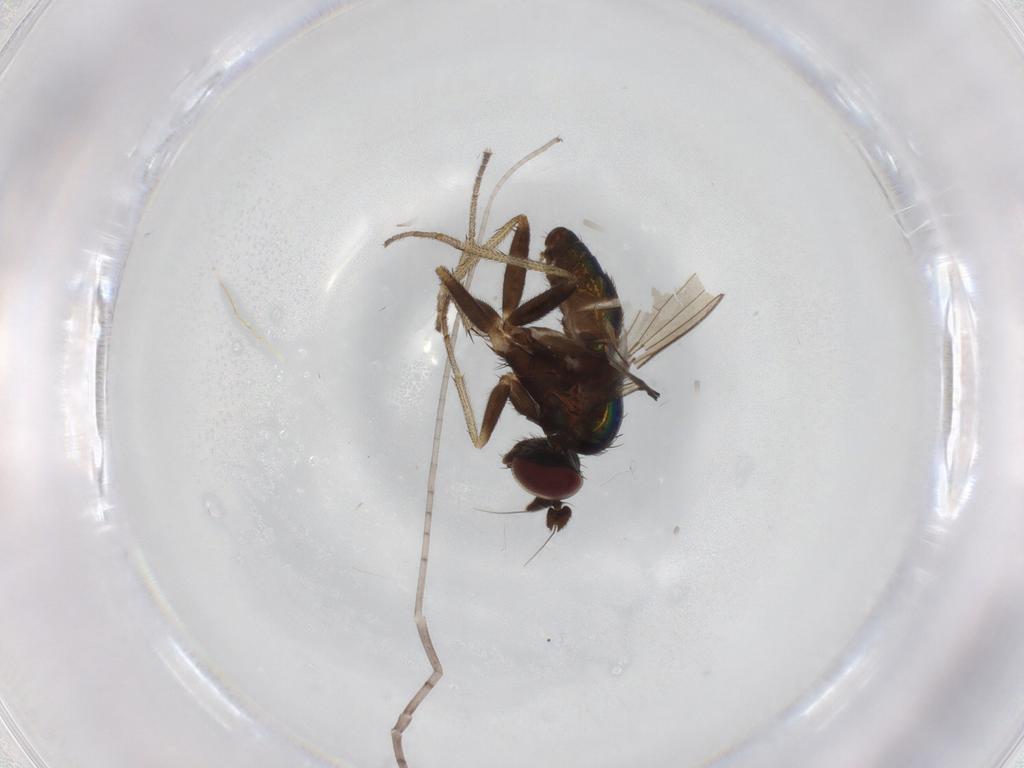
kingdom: Animalia
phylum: Arthropoda
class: Insecta
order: Diptera
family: Dolichopodidae
